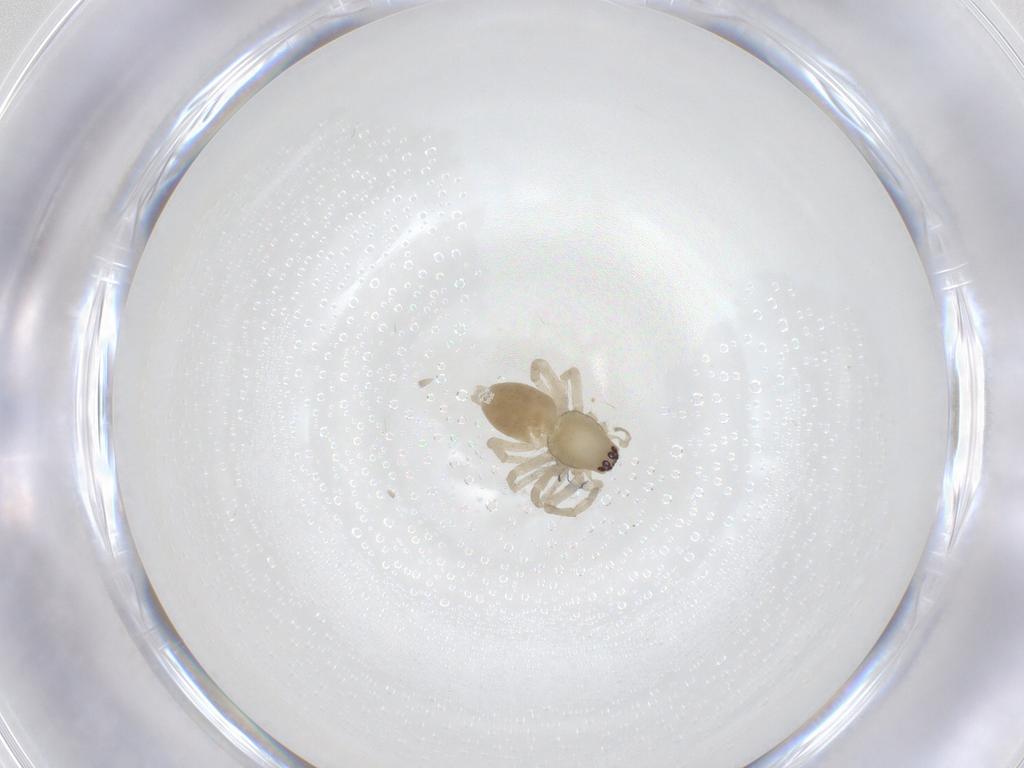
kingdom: Animalia
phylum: Arthropoda
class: Arachnida
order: Araneae
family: Anyphaenidae
